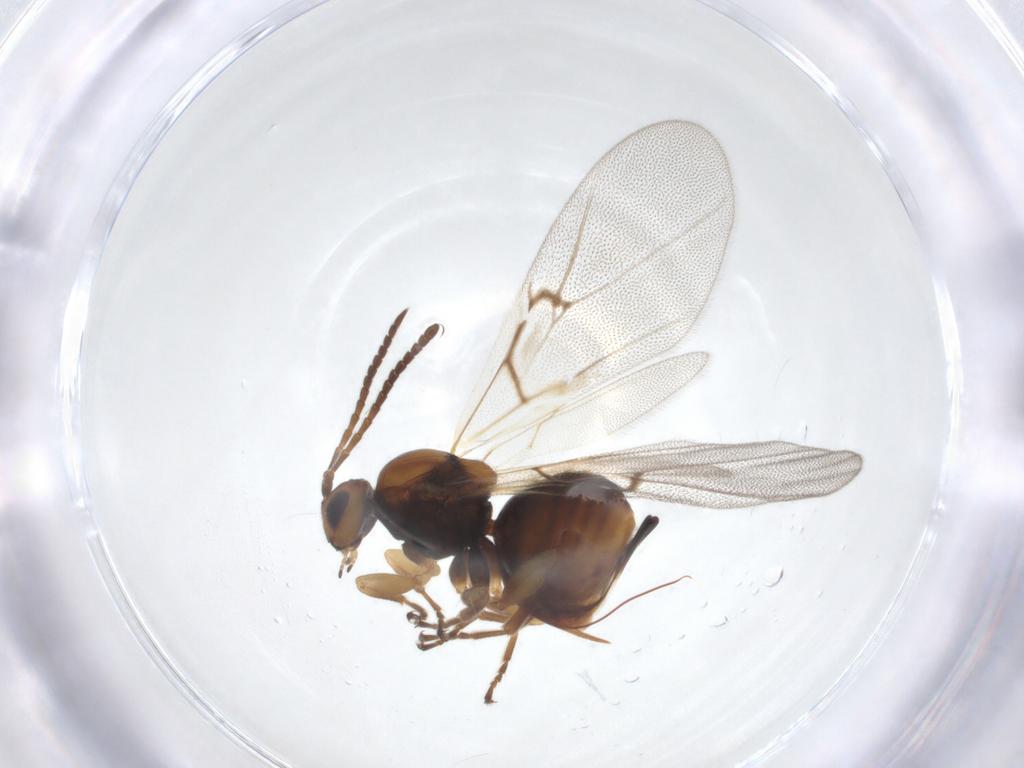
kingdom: Animalia
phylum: Arthropoda
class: Insecta
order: Hymenoptera
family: Cynipidae
